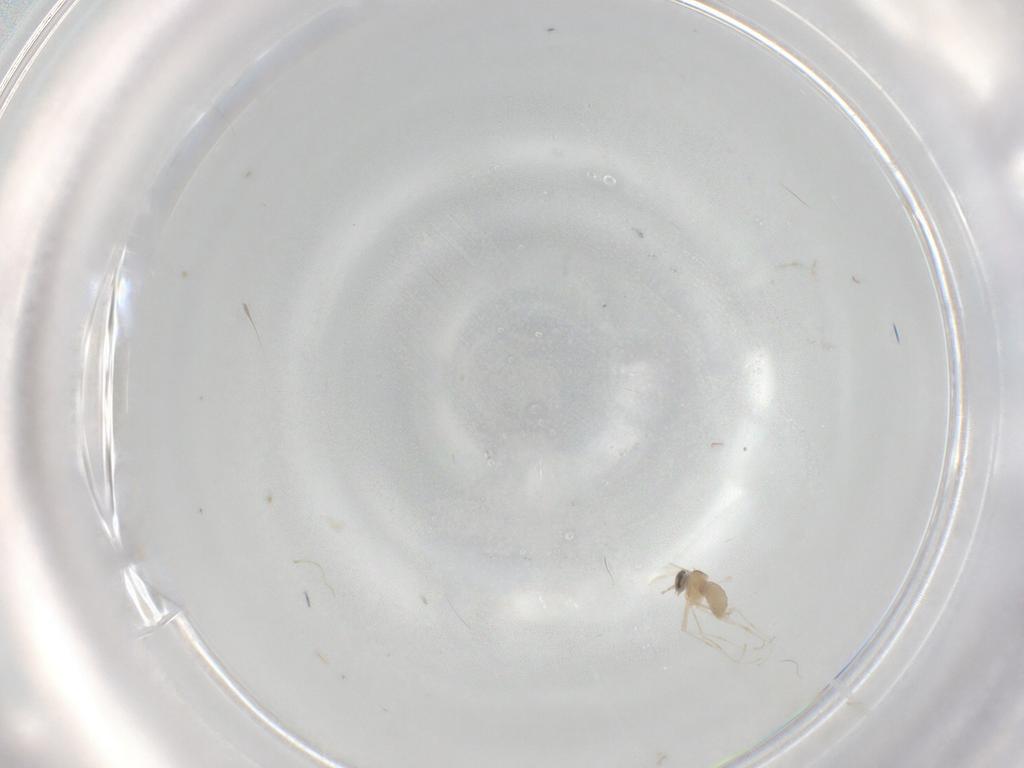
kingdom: Animalia
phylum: Arthropoda
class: Insecta
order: Diptera
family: Cecidomyiidae
